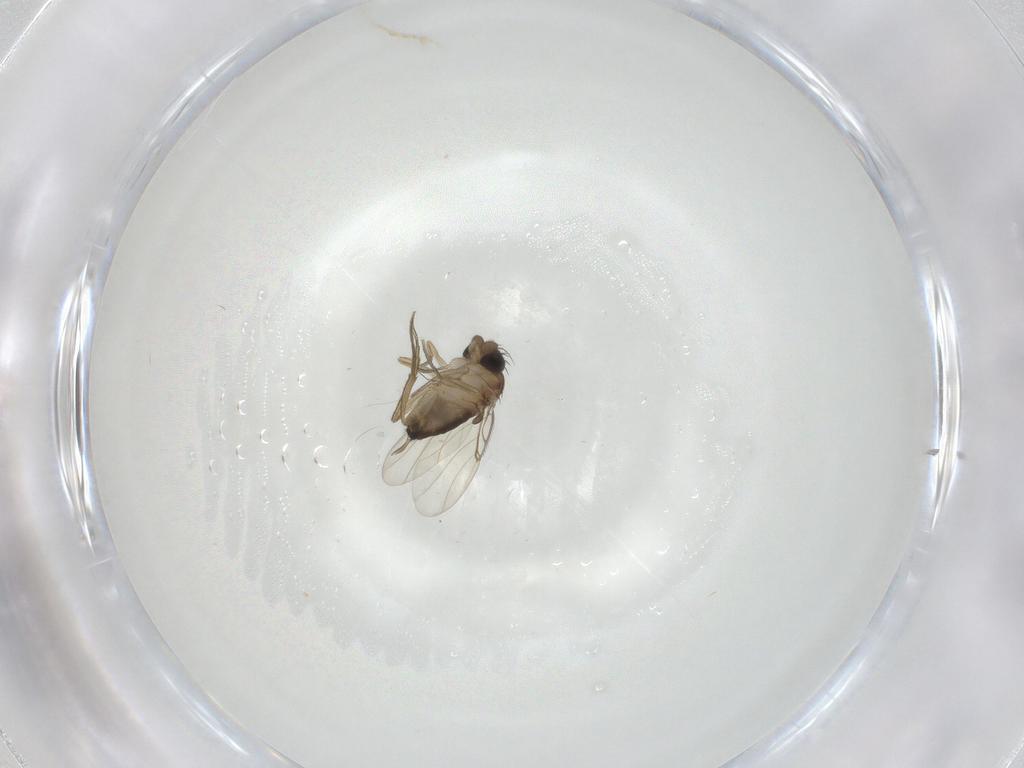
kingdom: Animalia
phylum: Arthropoda
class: Insecta
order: Diptera
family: Phoridae
